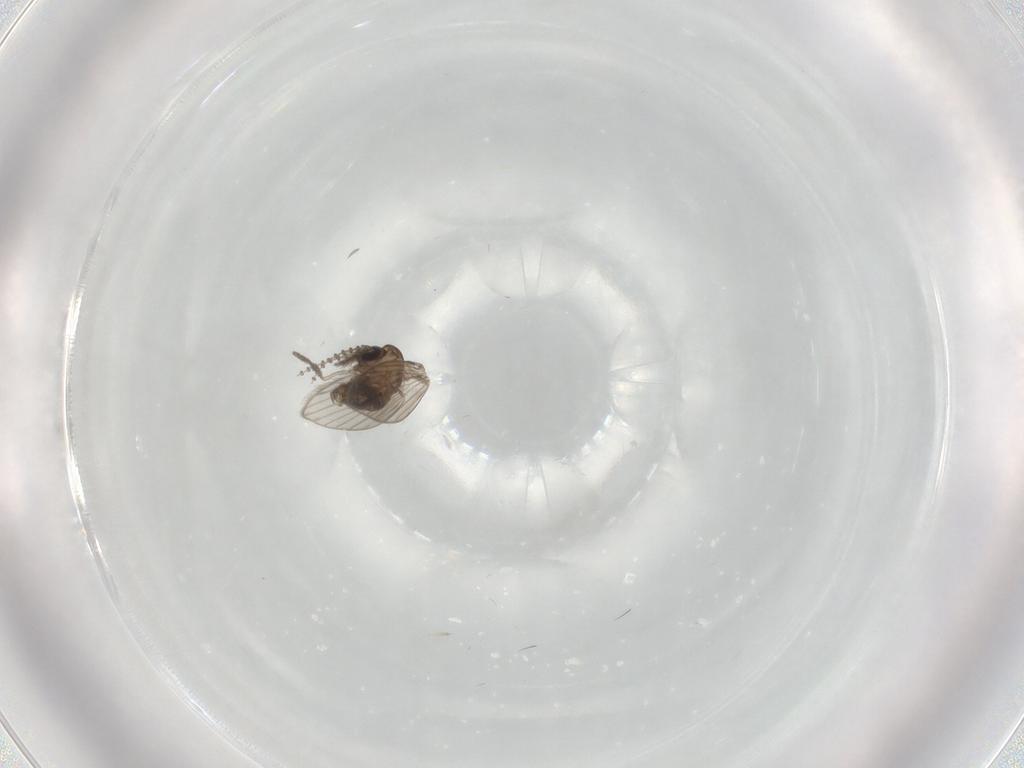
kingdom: Animalia
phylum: Arthropoda
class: Insecta
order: Diptera
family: Psychodidae
